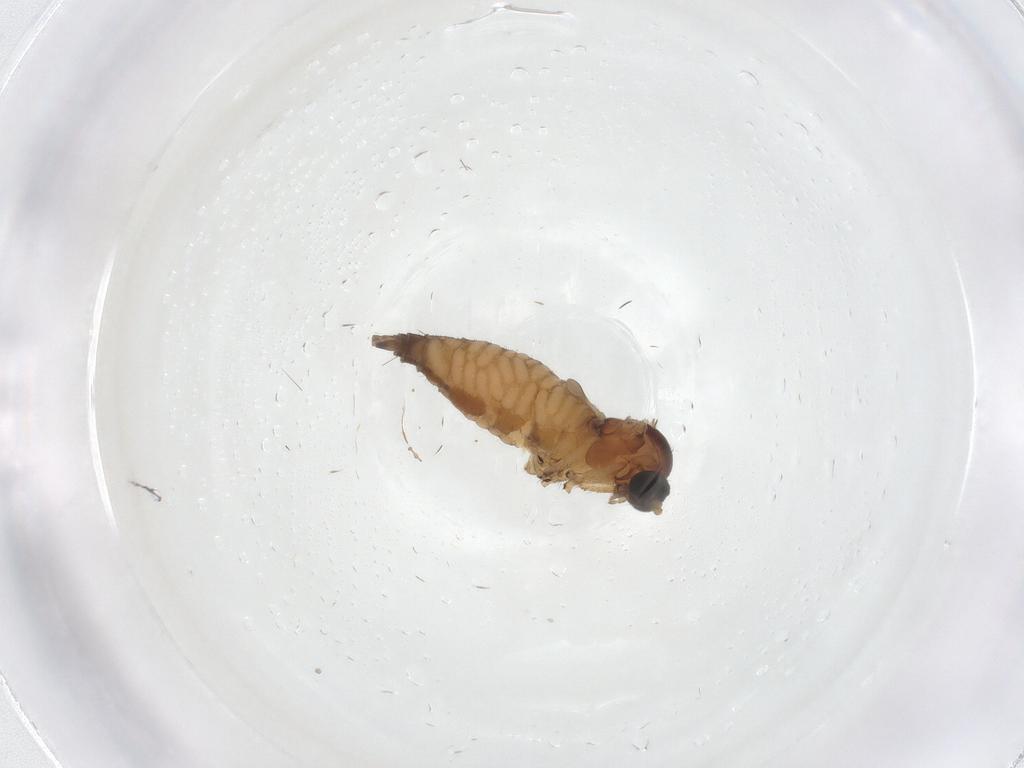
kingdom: Animalia
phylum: Arthropoda
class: Insecta
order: Diptera
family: Sciaridae
